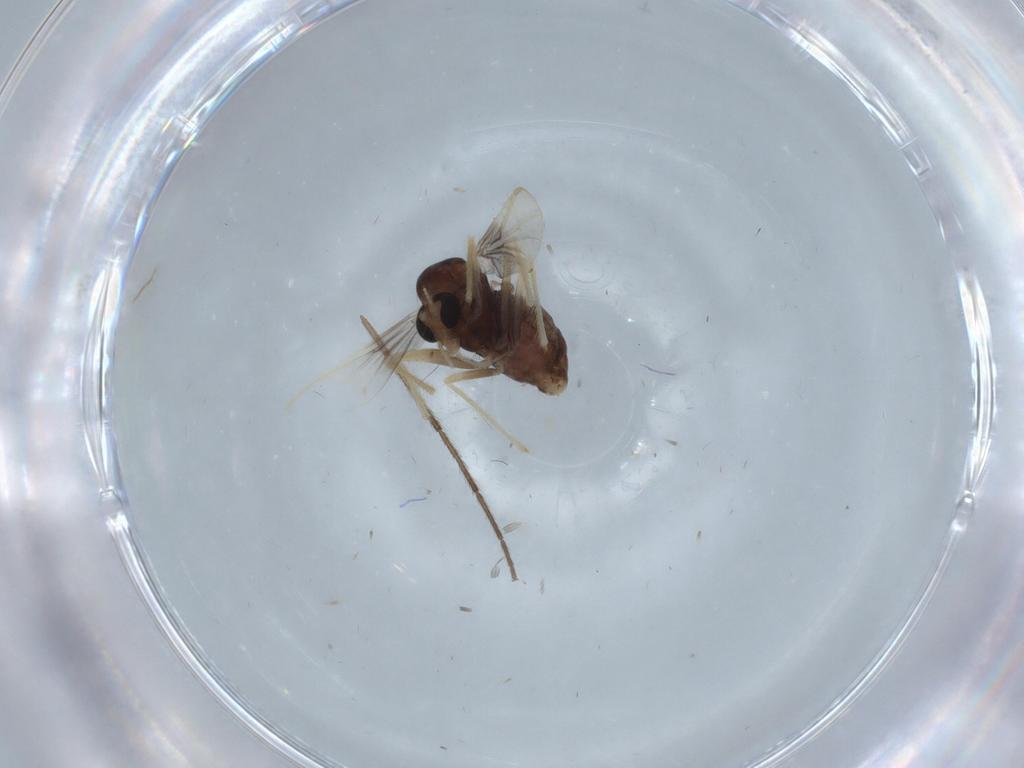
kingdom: Animalia
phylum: Arthropoda
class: Insecta
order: Diptera
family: Chironomidae
